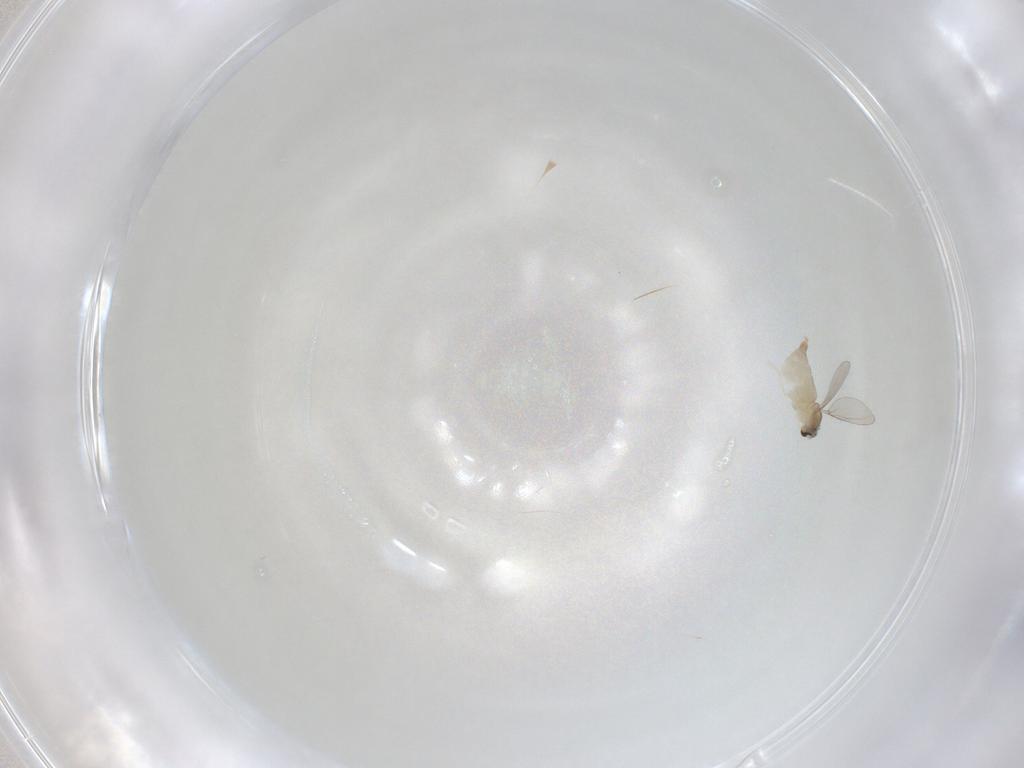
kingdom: Animalia
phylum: Arthropoda
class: Insecta
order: Diptera
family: Cecidomyiidae
